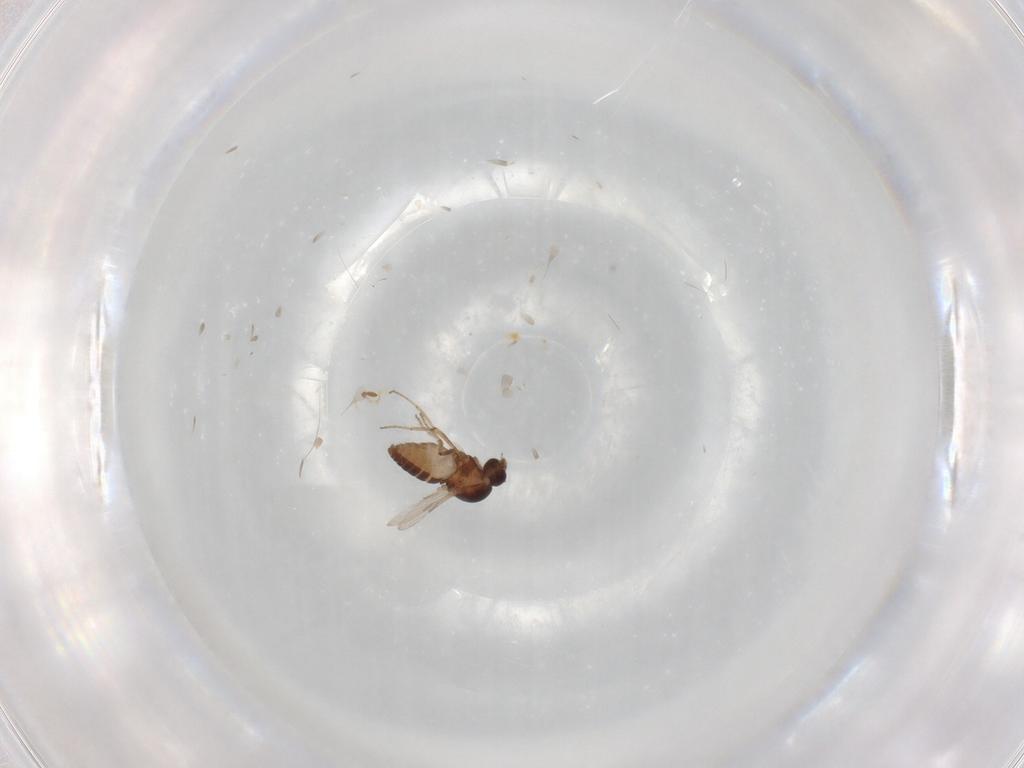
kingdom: Animalia
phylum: Arthropoda
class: Insecta
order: Diptera
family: Ceratopogonidae
